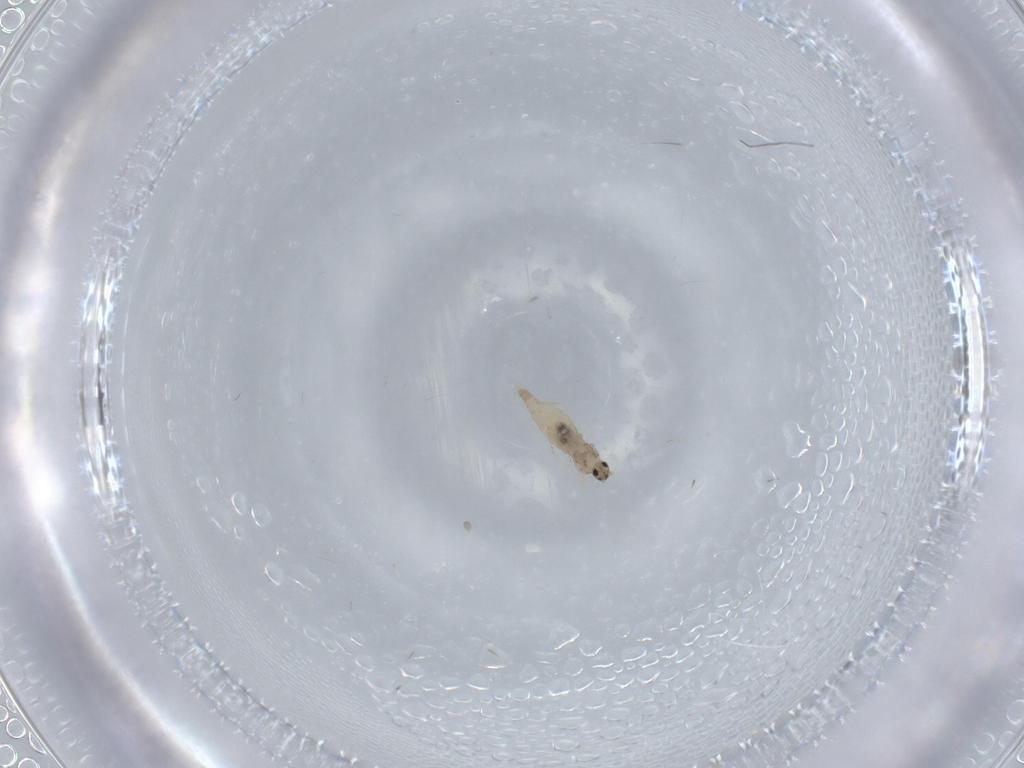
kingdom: Animalia
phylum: Arthropoda
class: Insecta
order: Diptera
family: Cecidomyiidae
